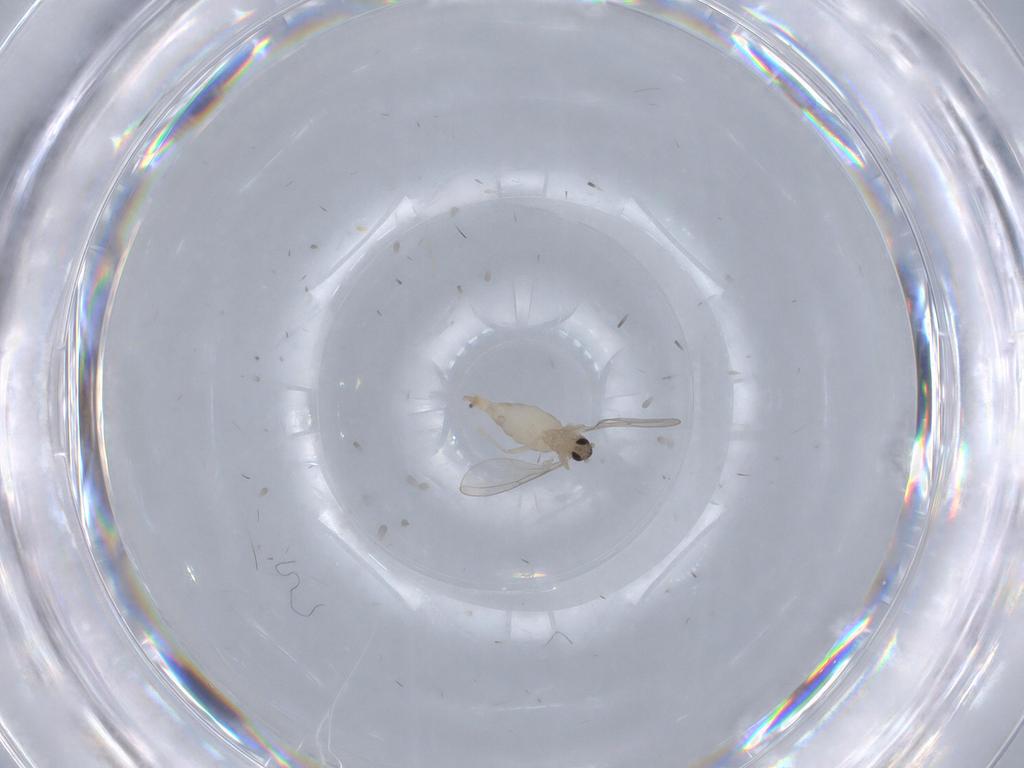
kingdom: Animalia
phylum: Arthropoda
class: Insecta
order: Diptera
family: Cecidomyiidae
